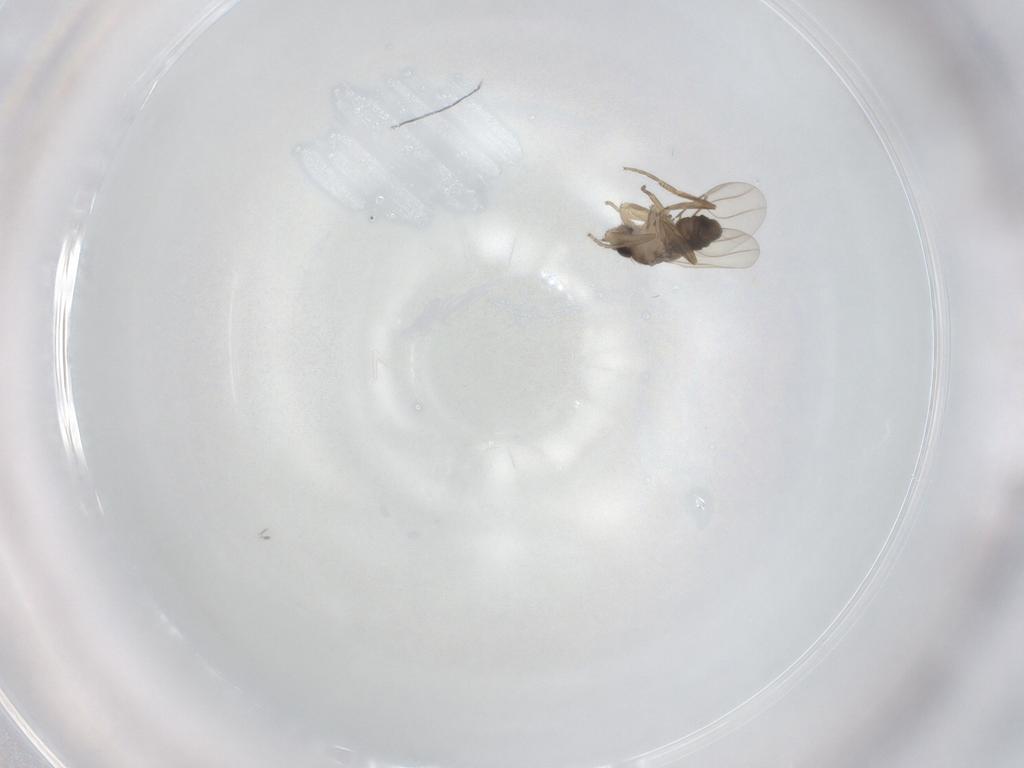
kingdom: Animalia
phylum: Arthropoda
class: Insecta
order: Diptera
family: Phoridae
